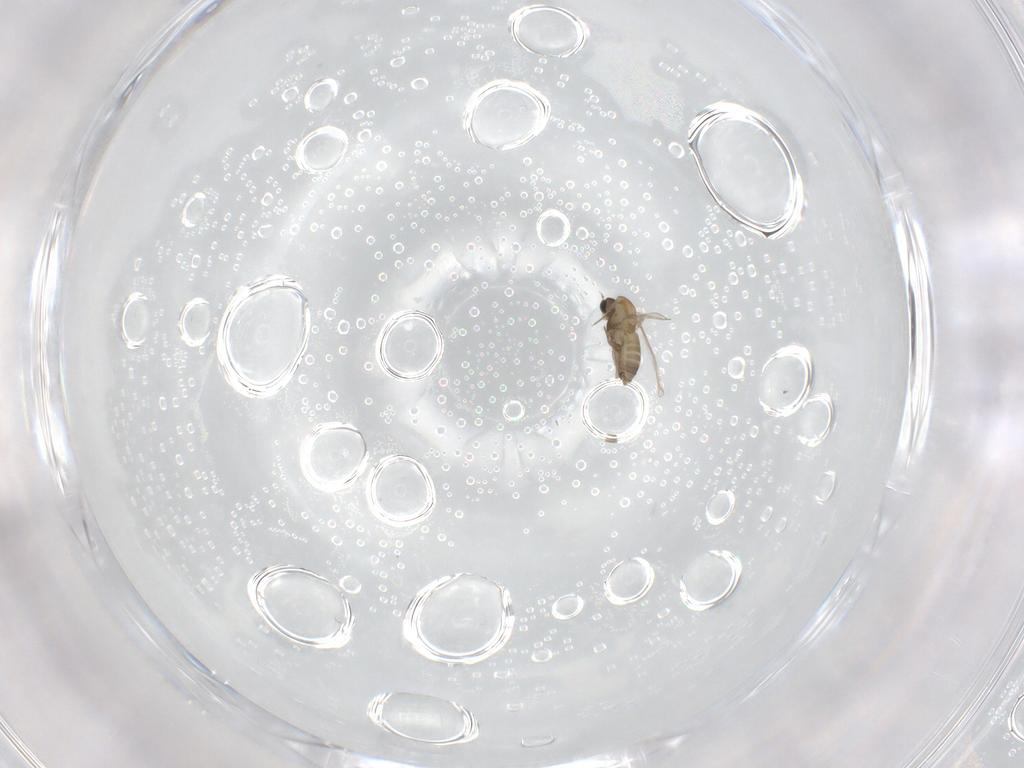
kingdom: Animalia
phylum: Arthropoda
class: Insecta
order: Diptera
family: Chironomidae
